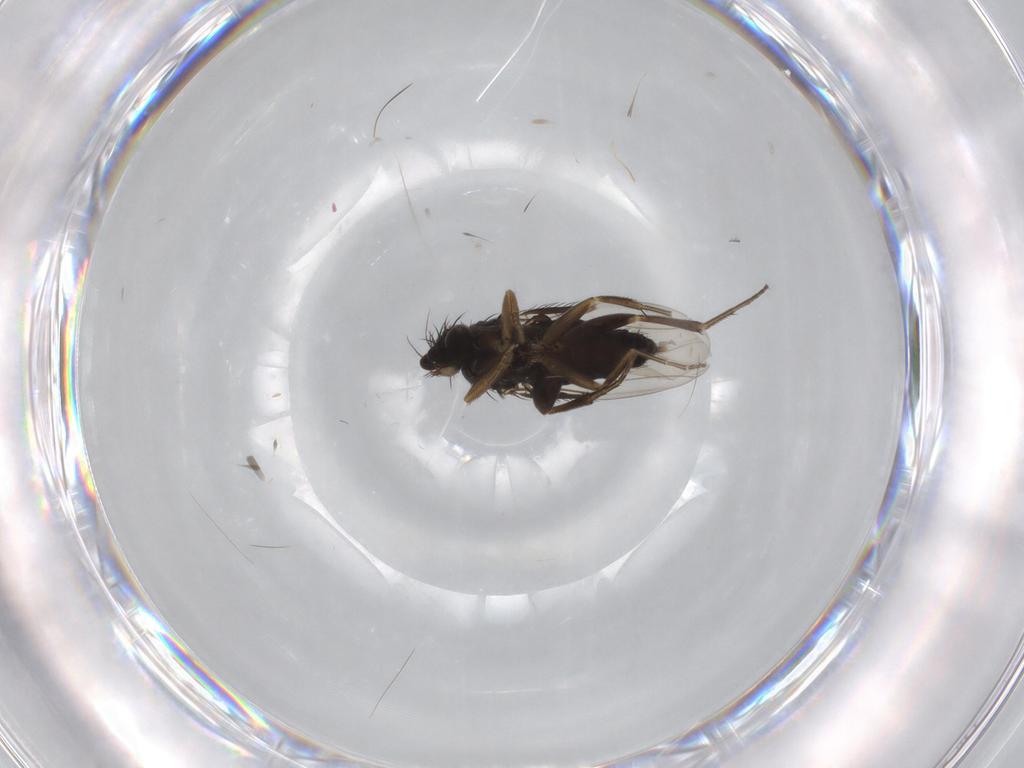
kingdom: Animalia
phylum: Arthropoda
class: Insecta
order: Diptera
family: Phoridae
